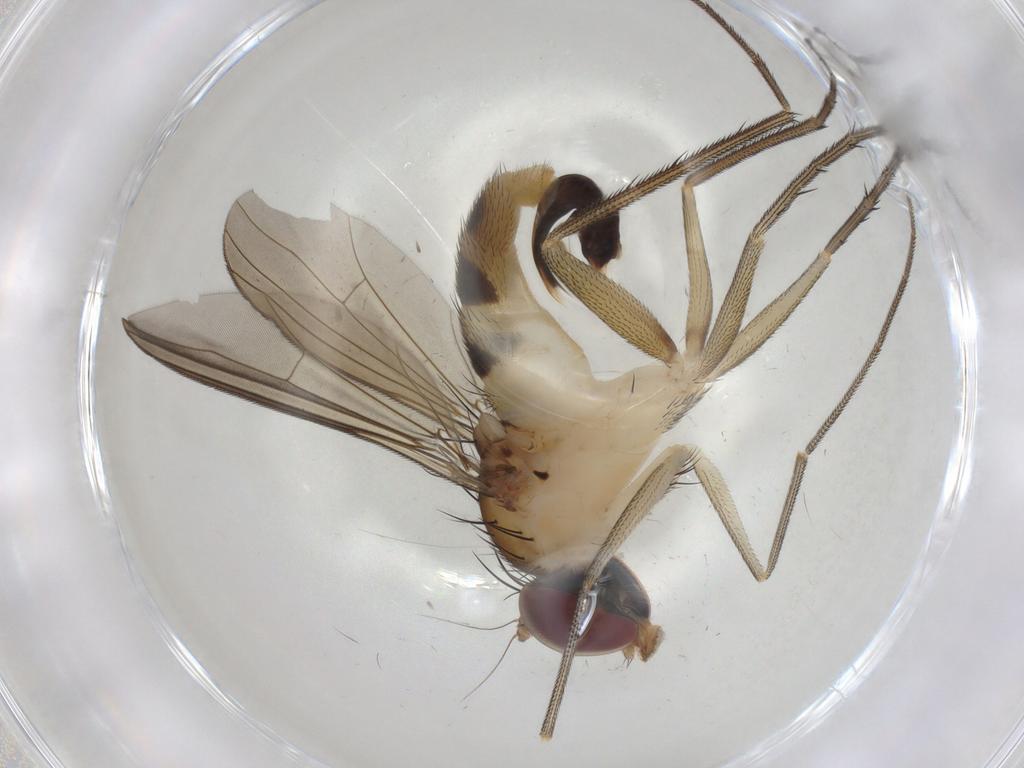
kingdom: Animalia
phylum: Arthropoda
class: Insecta
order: Diptera
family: Dolichopodidae
